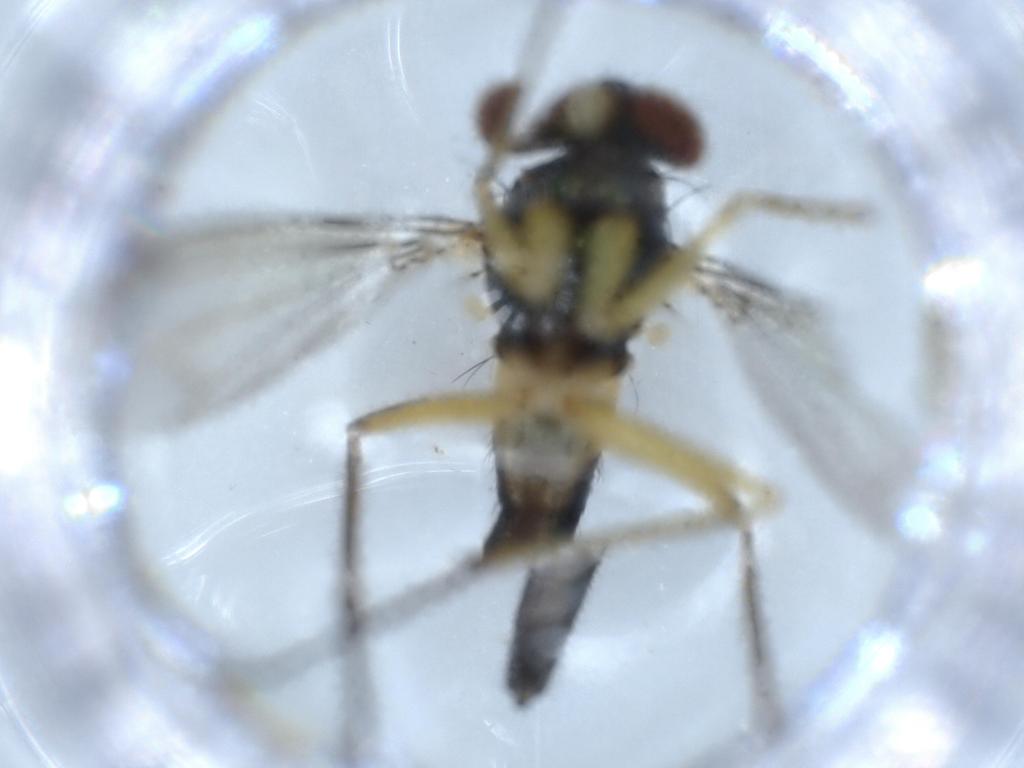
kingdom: Animalia
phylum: Arthropoda
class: Insecta
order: Diptera
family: Dolichopodidae
